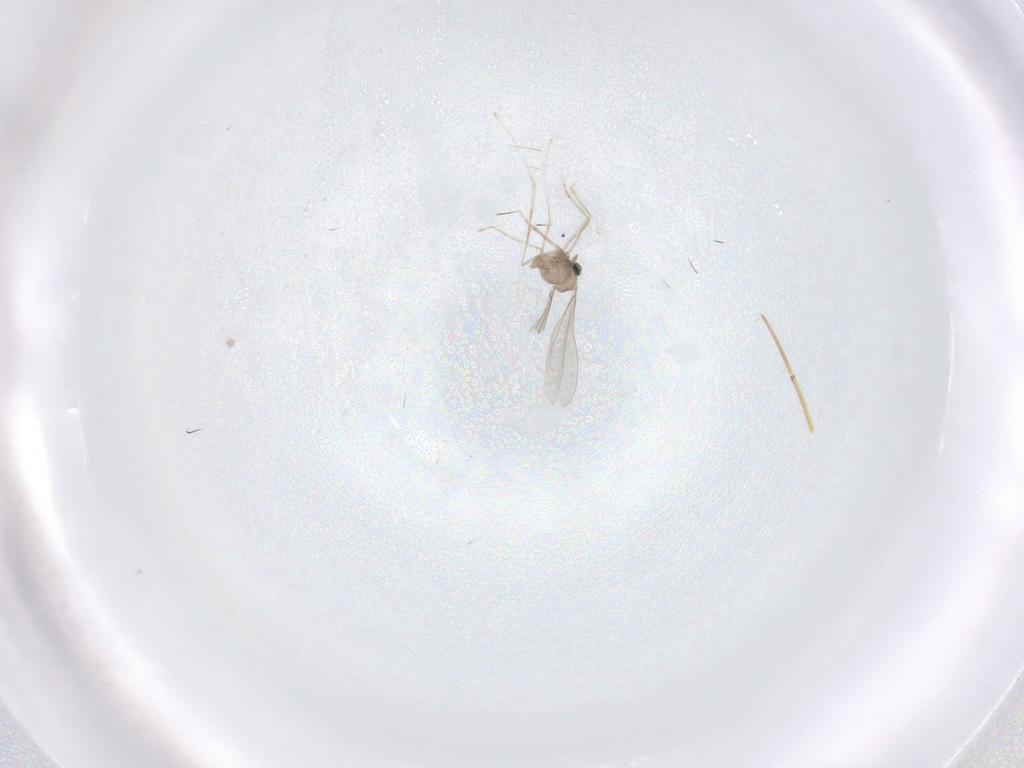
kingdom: Animalia
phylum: Arthropoda
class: Insecta
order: Diptera
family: Cecidomyiidae
